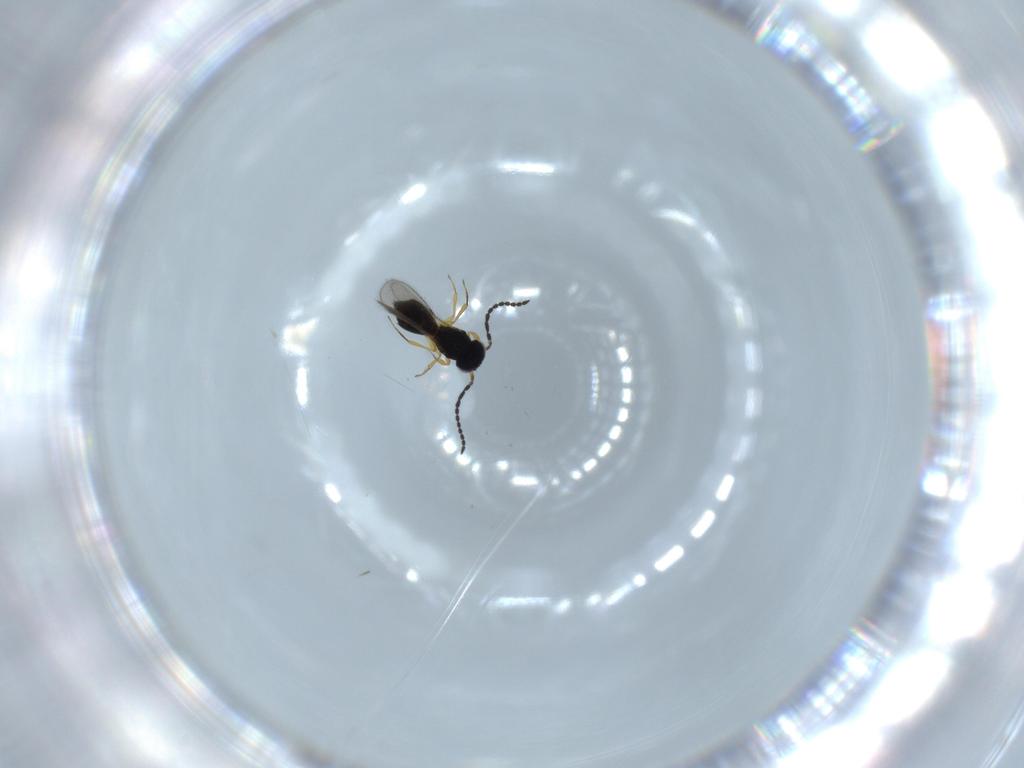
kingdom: Animalia
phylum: Arthropoda
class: Insecta
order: Hymenoptera
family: Scelionidae
